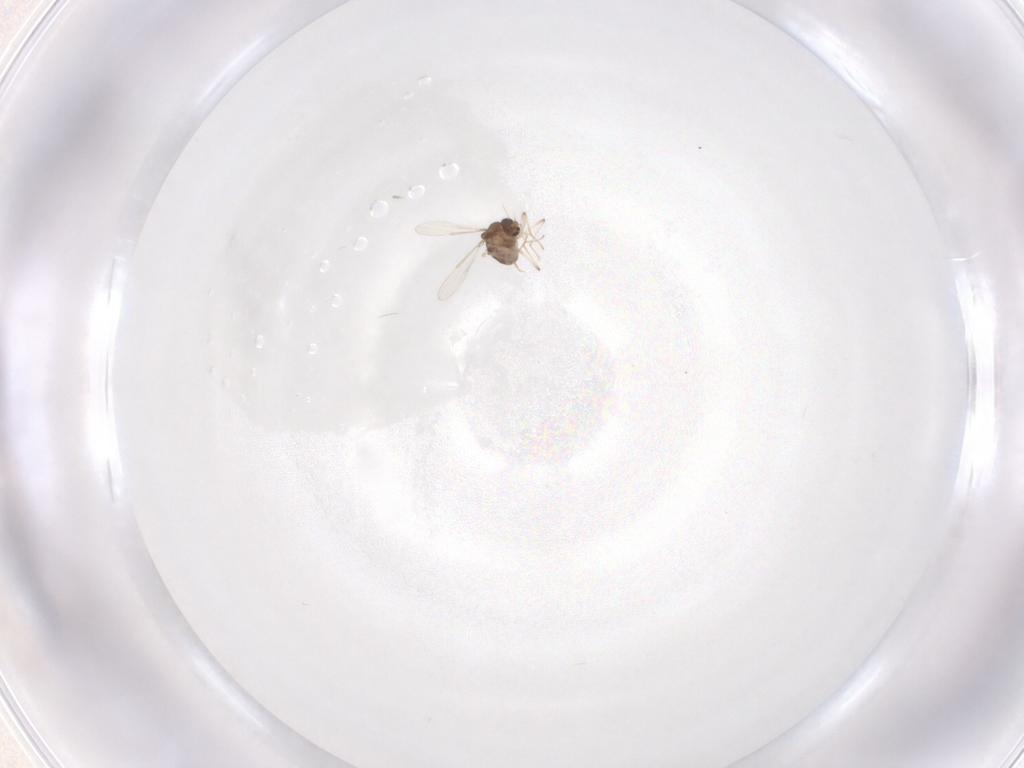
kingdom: Animalia
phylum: Arthropoda
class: Insecta
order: Diptera
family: Chironomidae
